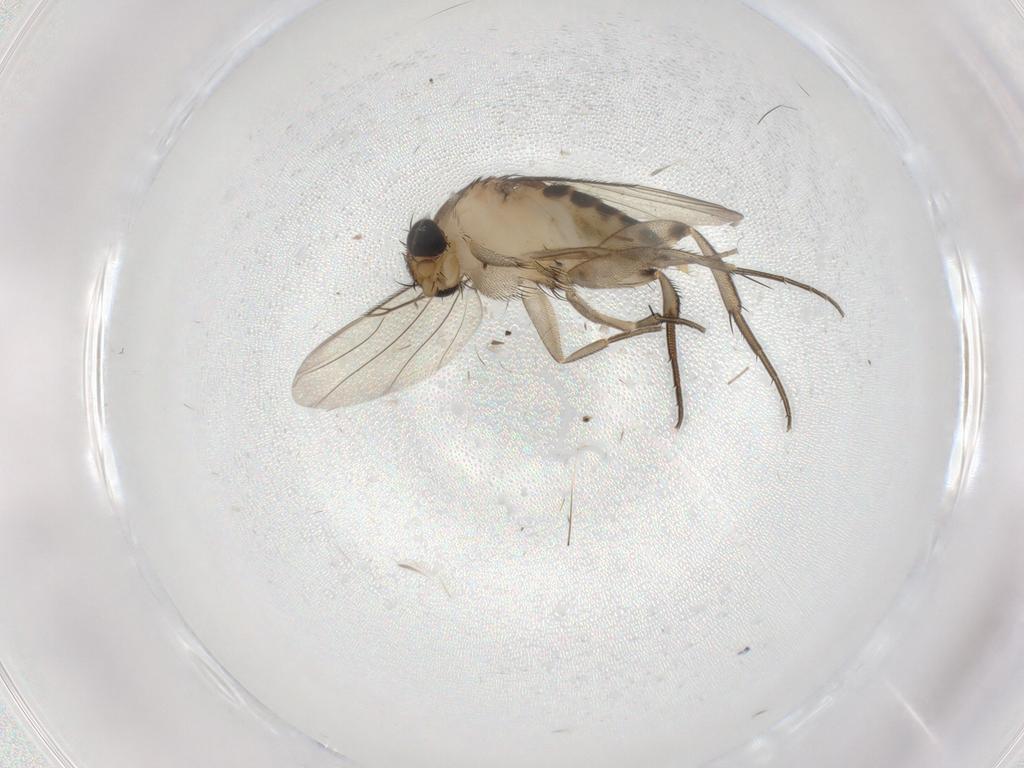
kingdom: Animalia
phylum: Arthropoda
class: Insecta
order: Diptera
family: Phoridae
